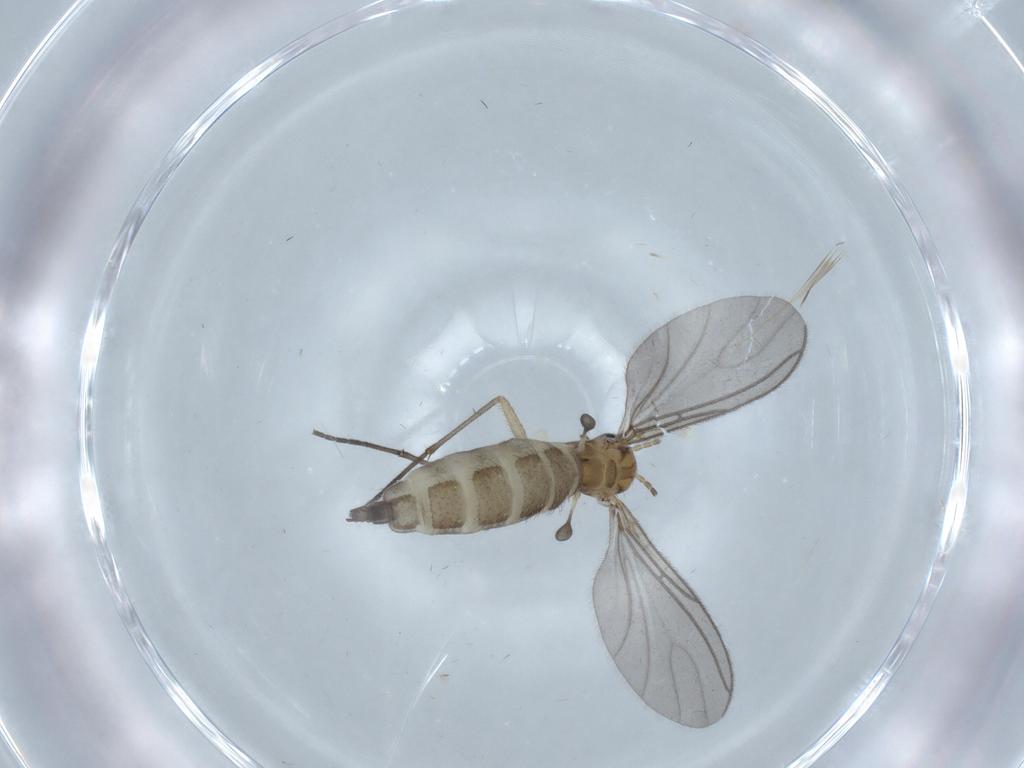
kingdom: Animalia
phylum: Arthropoda
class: Insecta
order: Diptera
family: Sciaridae
